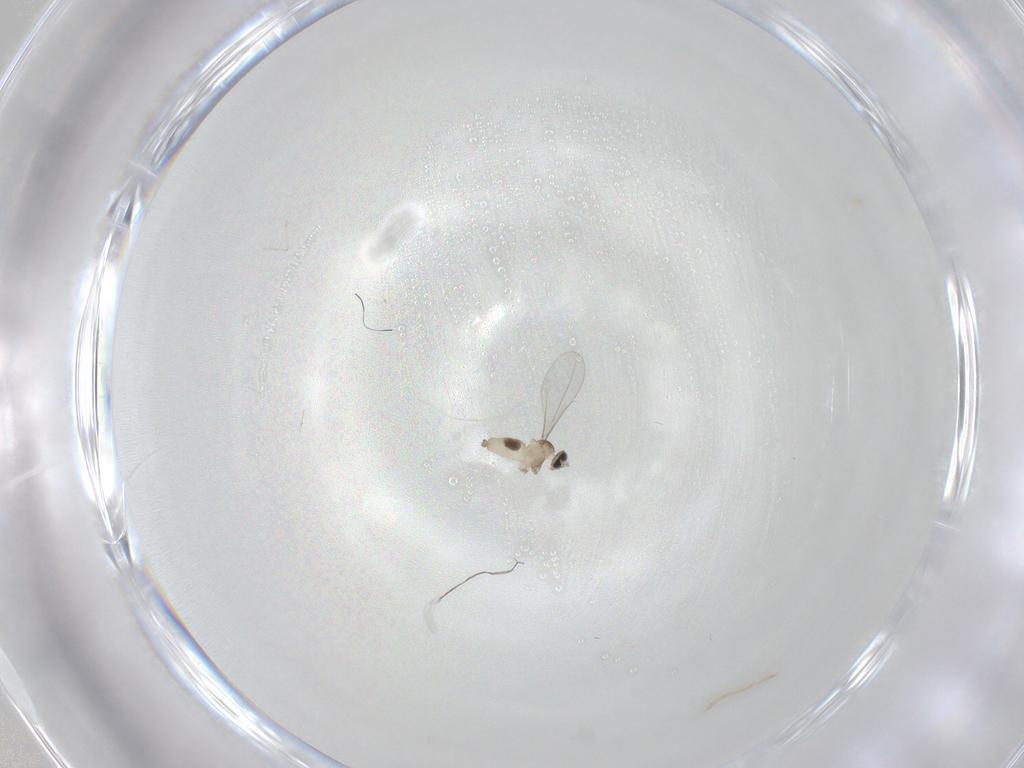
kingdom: Animalia
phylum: Arthropoda
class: Insecta
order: Diptera
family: Cecidomyiidae
